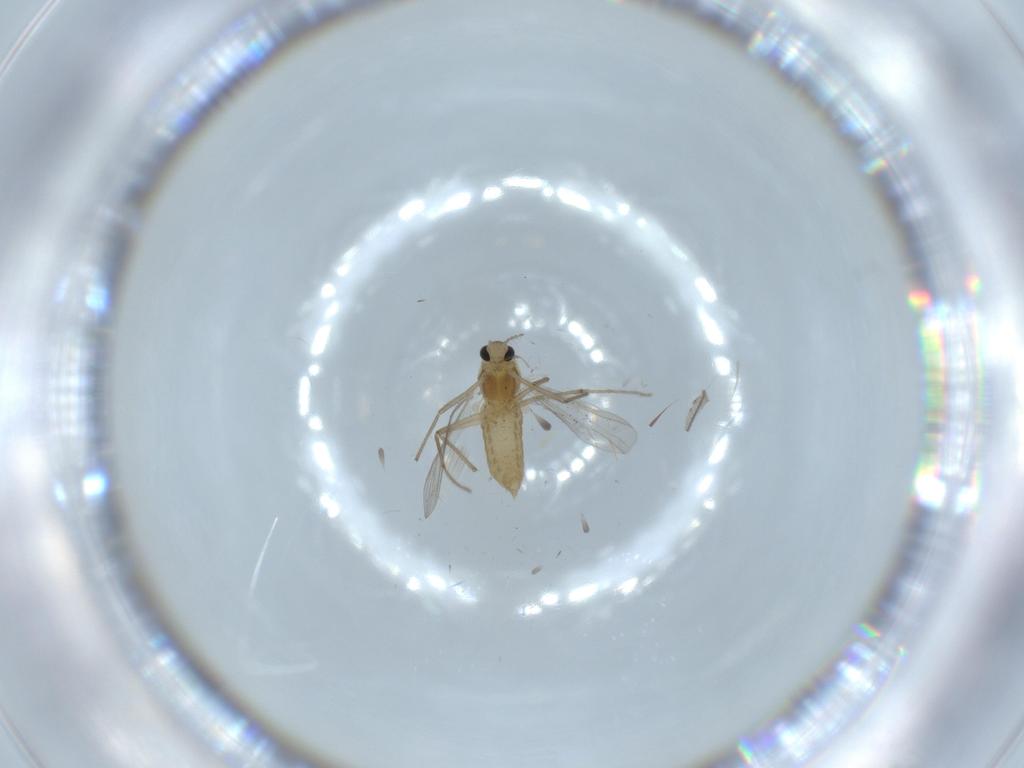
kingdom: Animalia
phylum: Arthropoda
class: Insecta
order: Diptera
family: Chironomidae
